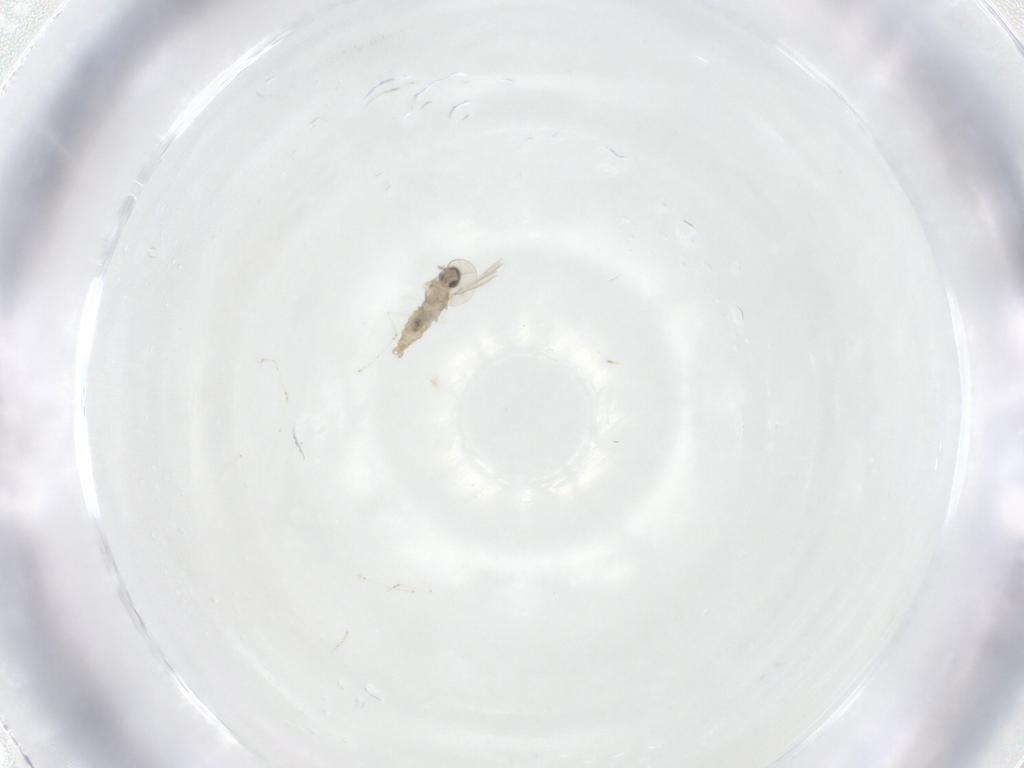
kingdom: Animalia
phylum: Arthropoda
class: Insecta
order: Diptera
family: Cecidomyiidae
